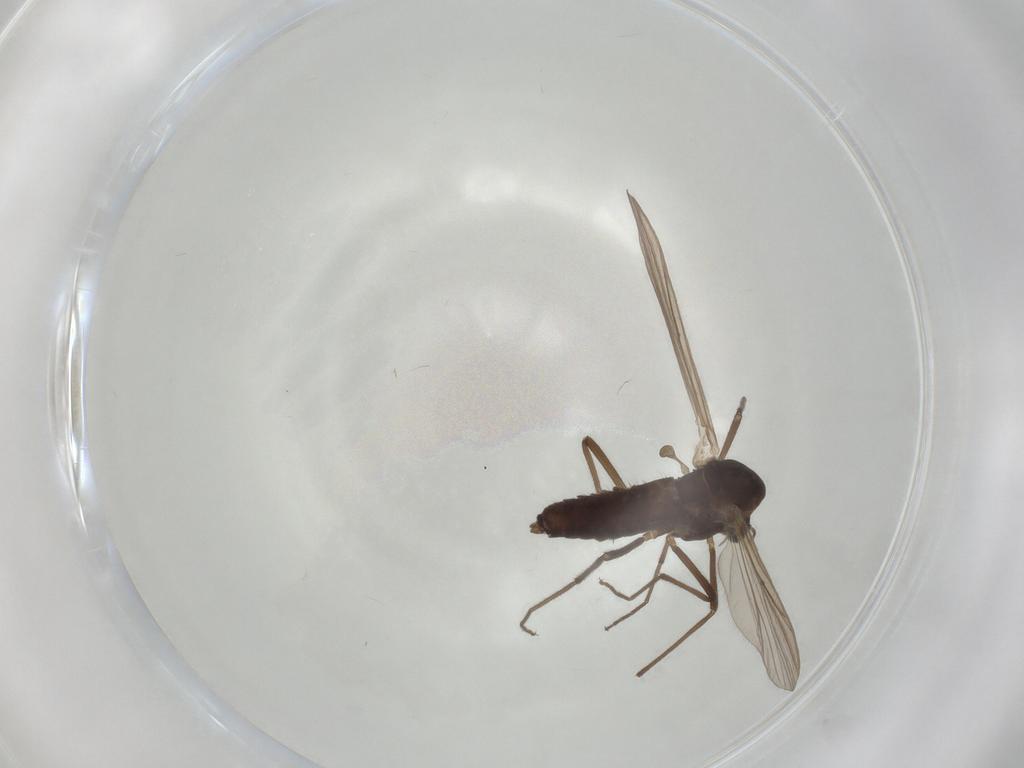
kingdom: Animalia
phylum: Arthropoda
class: Insecta
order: Diptera
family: Chironomidae
